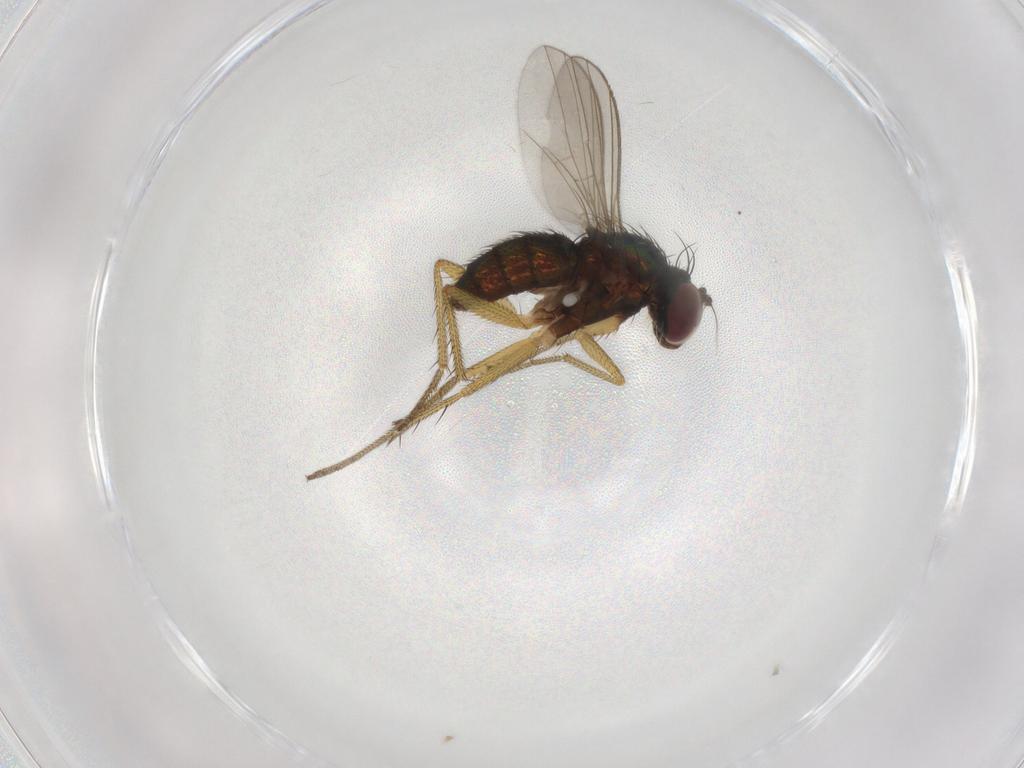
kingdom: Animalia
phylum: Arthropoda
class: Insecta
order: Diptera
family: Dolichopodidae
